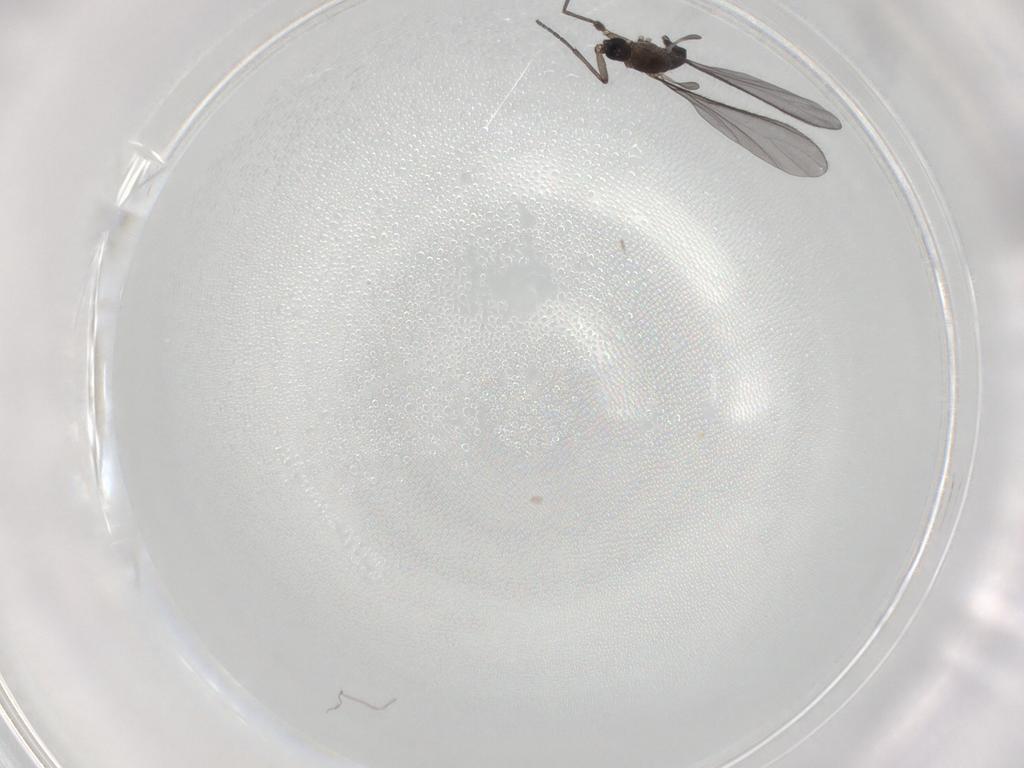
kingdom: Animalia
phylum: Arthropoda
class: Insecta
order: Diptera
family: Sciaridae
